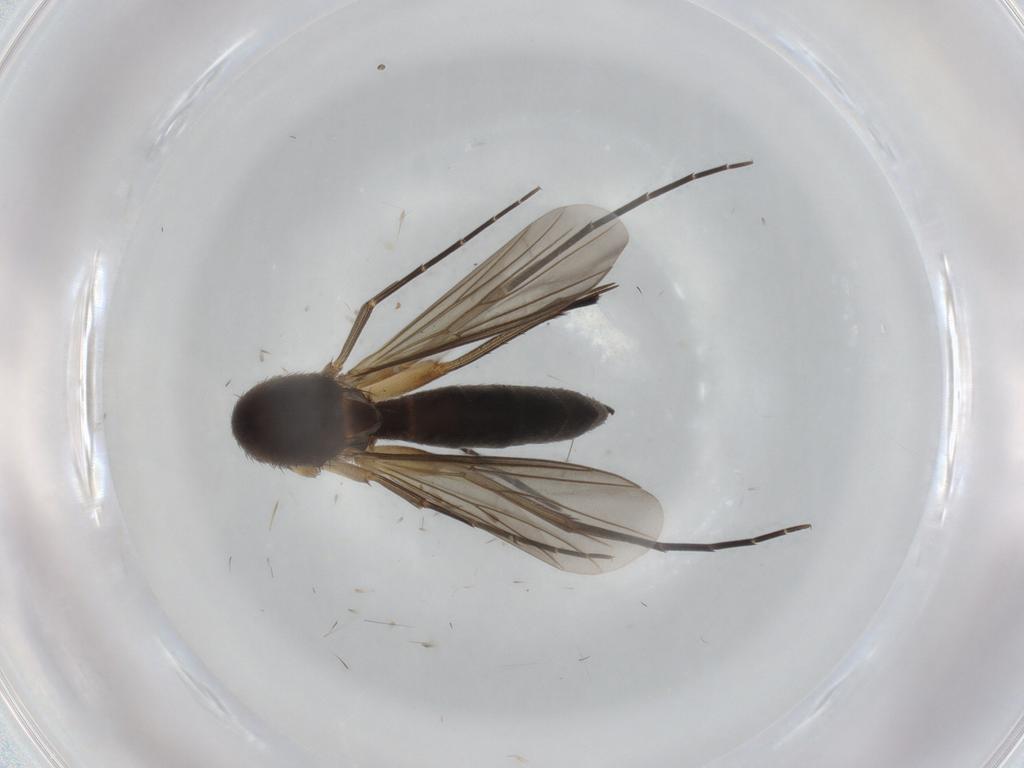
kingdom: Animalia
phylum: Arthropoda
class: Insecta
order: Diptera
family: Mycetophilidae
